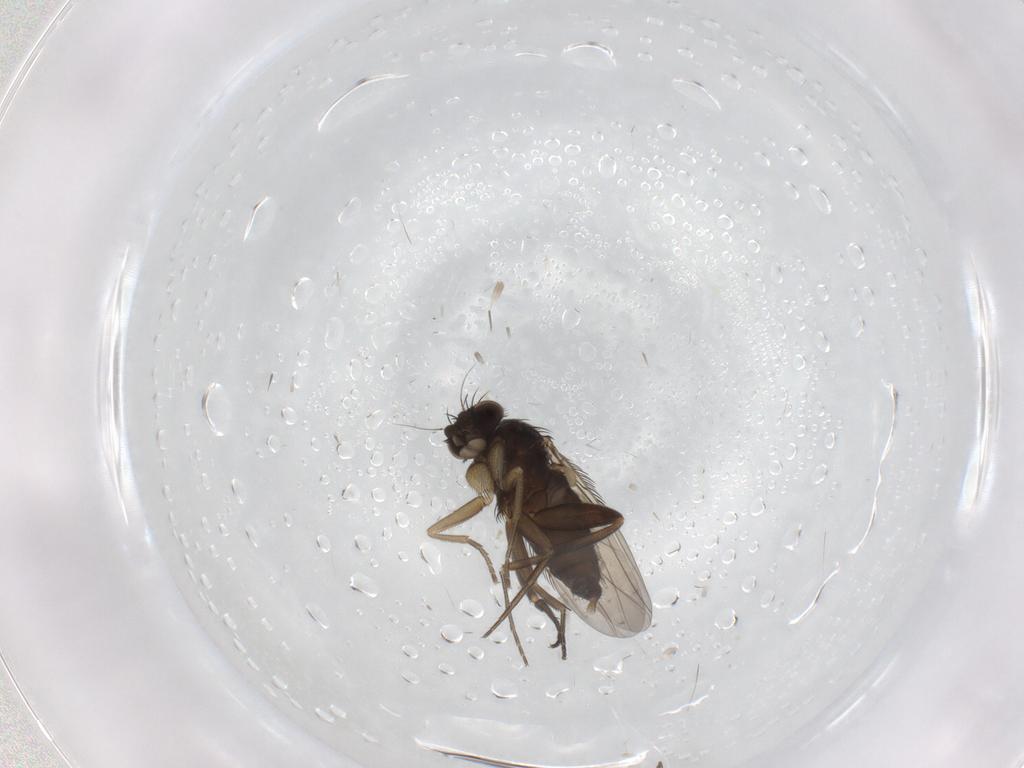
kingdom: Animalia
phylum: Arthropoda
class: Insecta
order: Diptera
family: Phoridae
